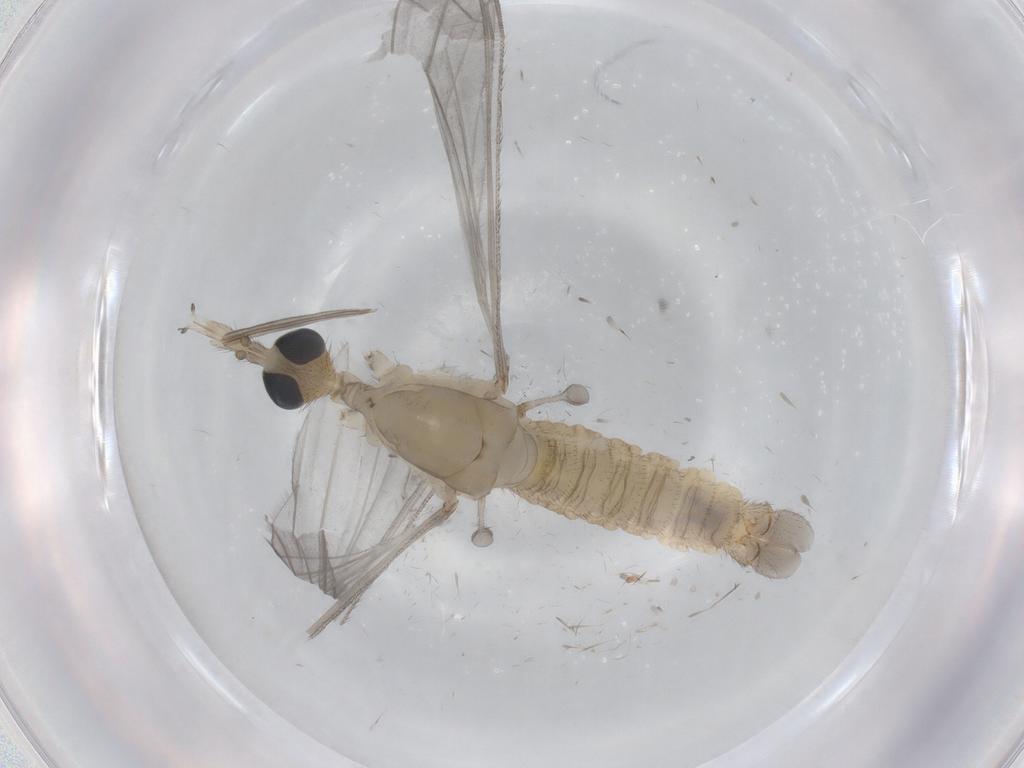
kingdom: Animalia
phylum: Arthropoda
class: Insecta
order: Diptera
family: Limoniidae
